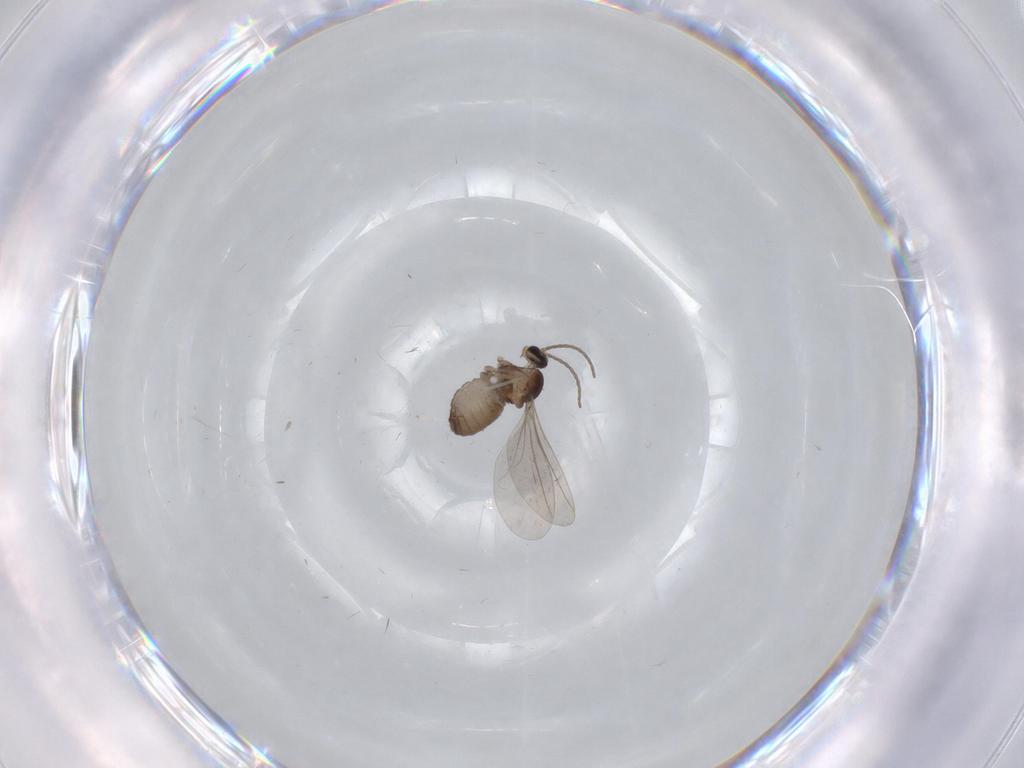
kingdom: Animalia
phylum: Arthropoda
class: Insecta
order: Diptera
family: Cecidomyiidae
